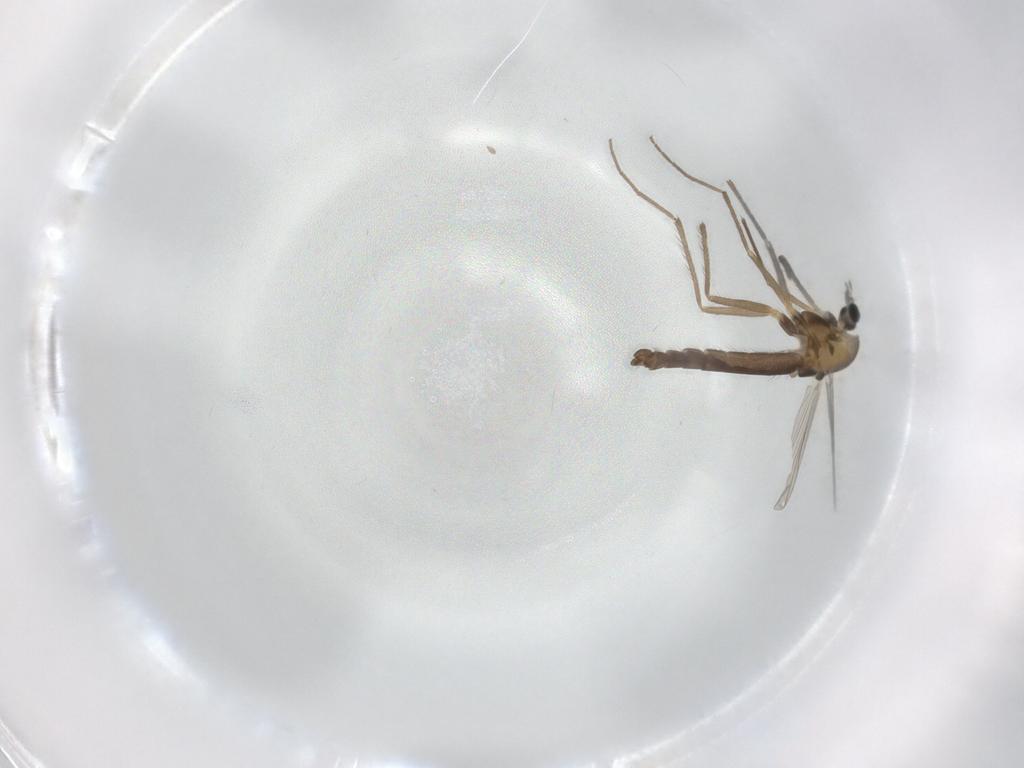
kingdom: Animalia
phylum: Arthropoda
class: Insecta
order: Diptera
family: Chironomidae
